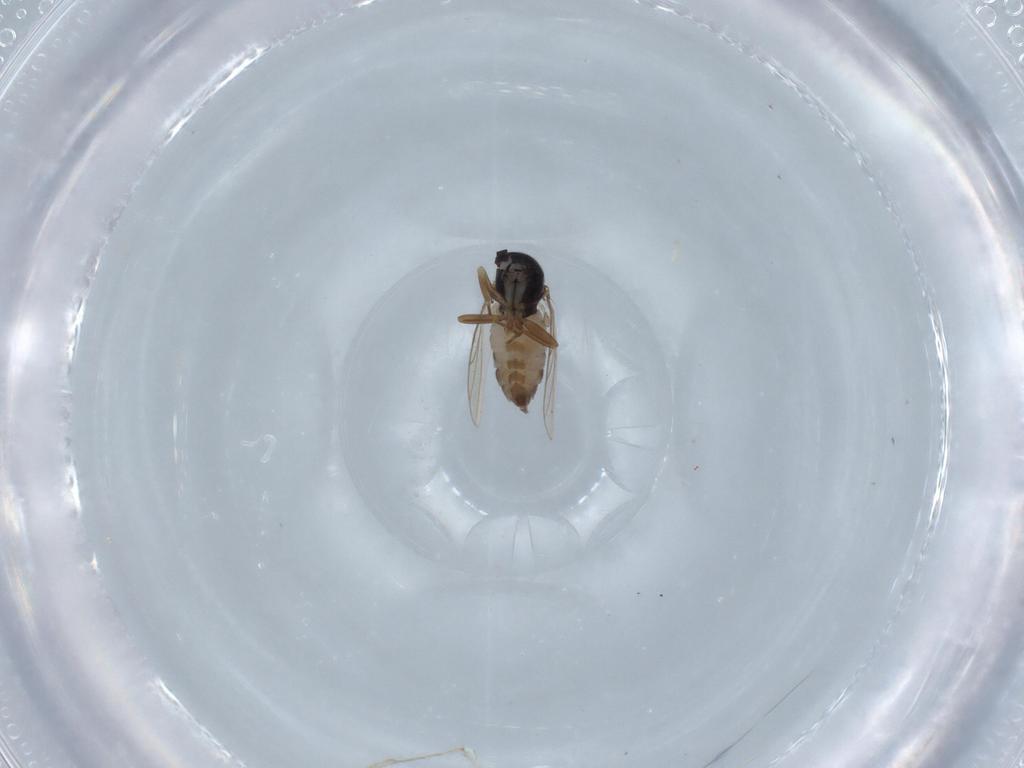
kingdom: Animalia
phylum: Arthropoda
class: Insecta
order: Diptera
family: Hybotidae
